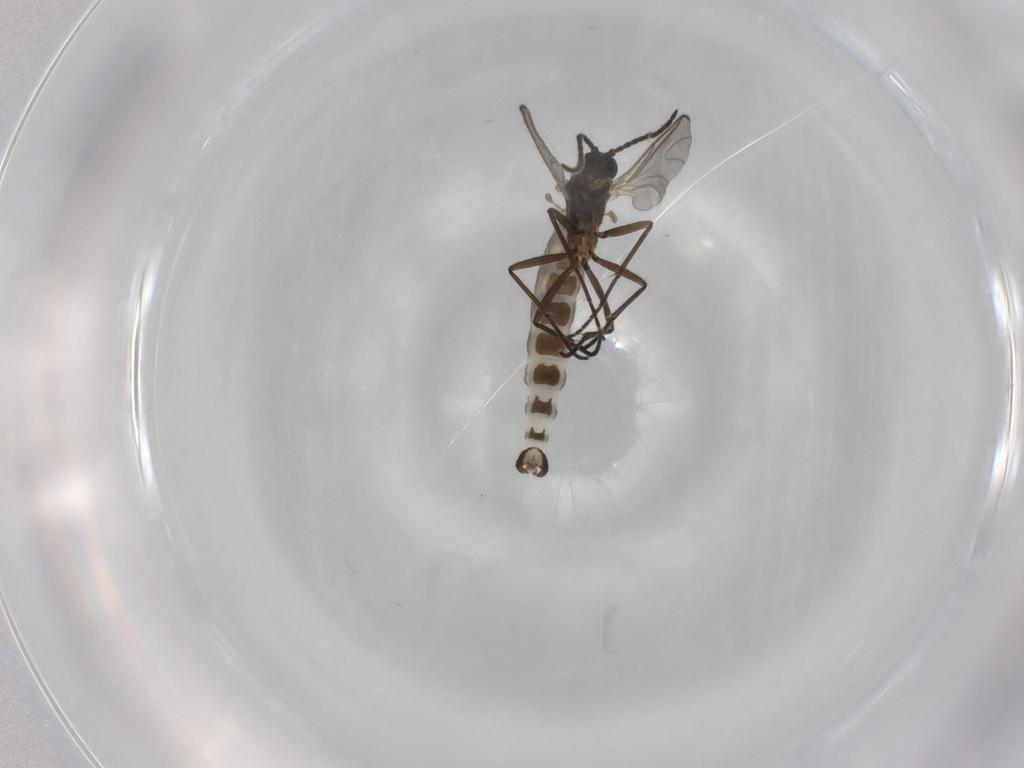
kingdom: Animalia
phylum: Arthropoda
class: Insecta
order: Diptera
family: Sciaridae
